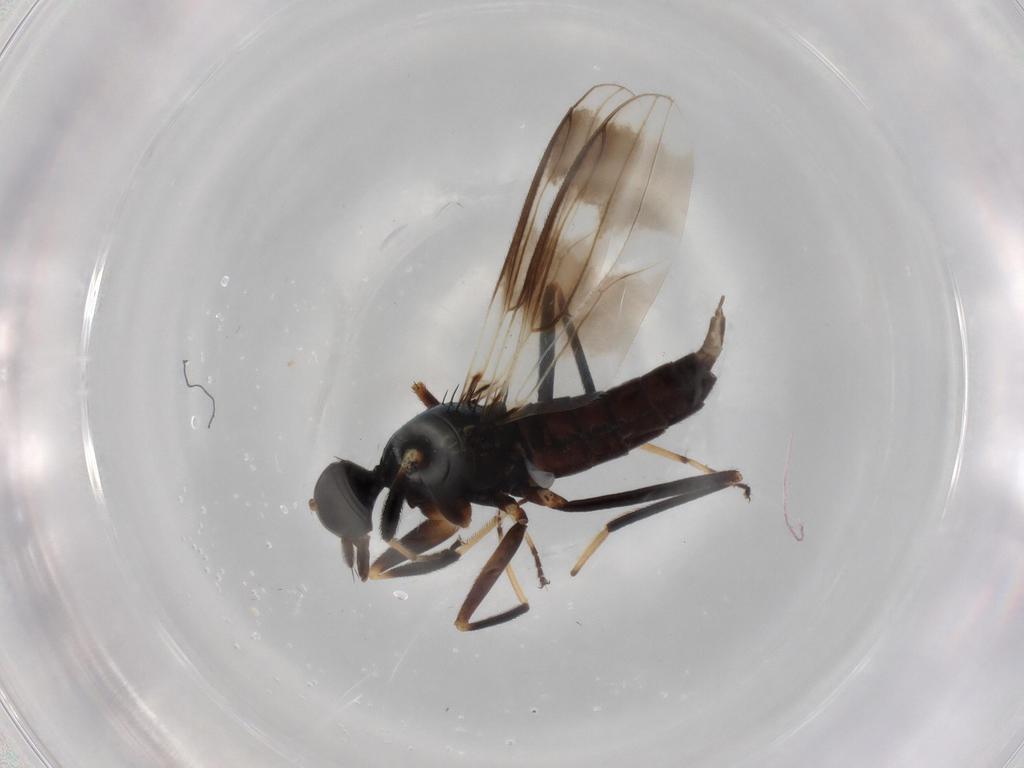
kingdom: Animalia
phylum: Arthropoda
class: Insecta
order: Diptera
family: Hybotidae
